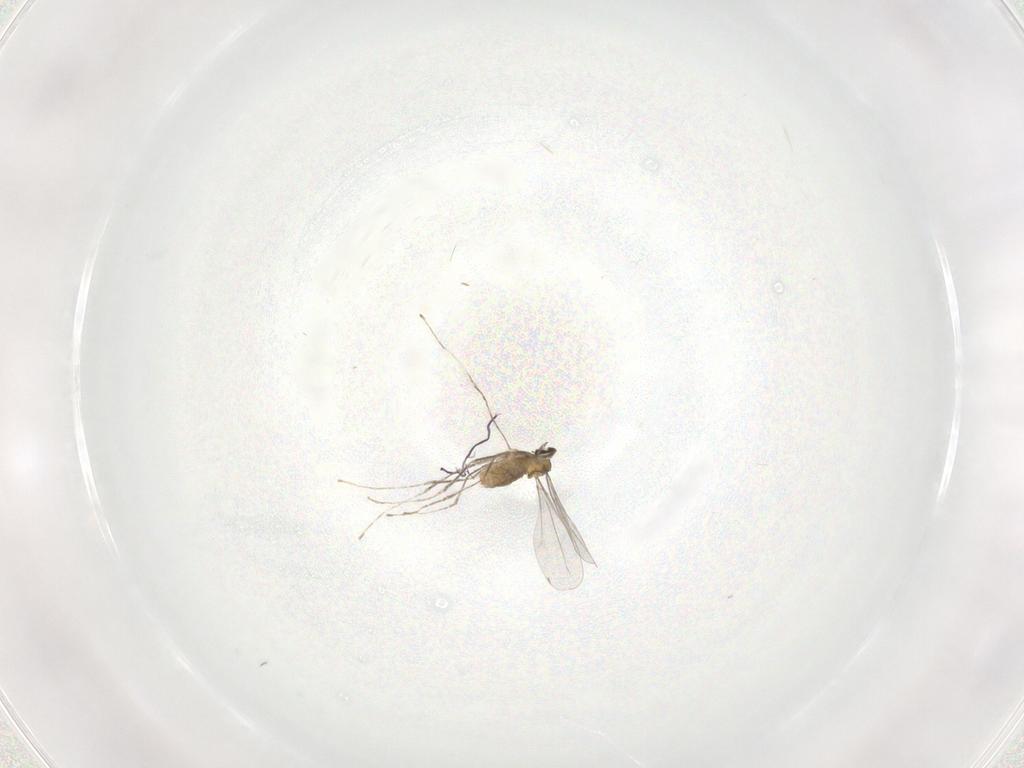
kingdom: Animalia
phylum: Arthropoda
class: Insecta
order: Diptera
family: Cecidomyiidae
